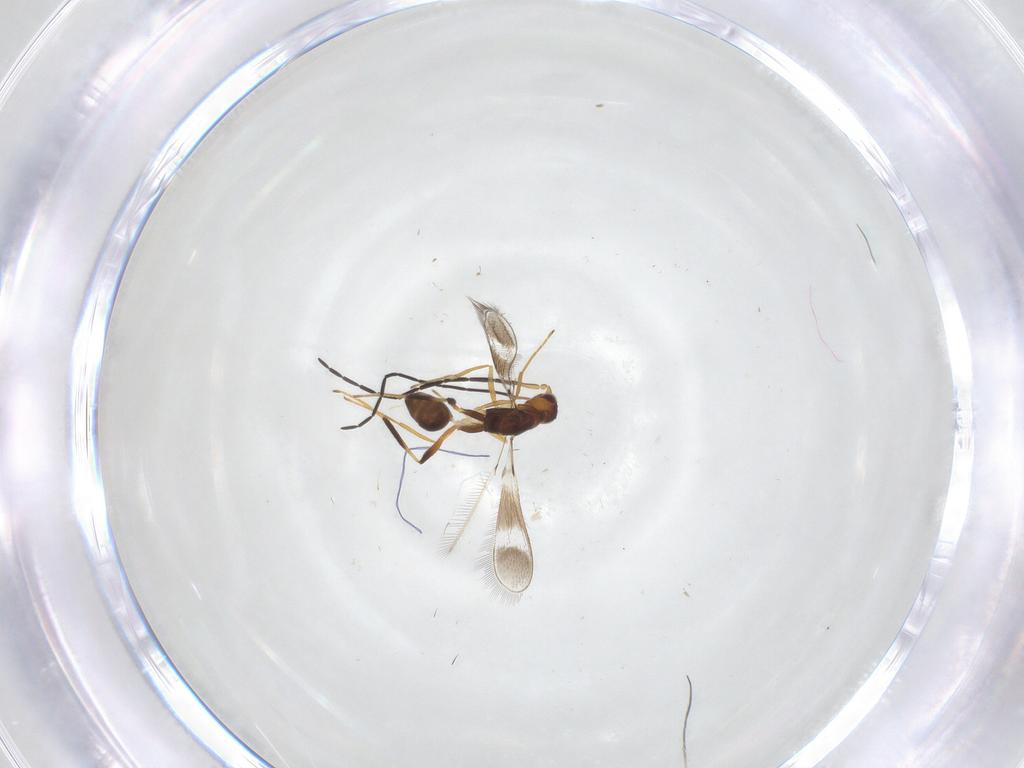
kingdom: Animalia
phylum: Arthropoda
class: Insecta
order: Hymenoptera
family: Mymaridae
